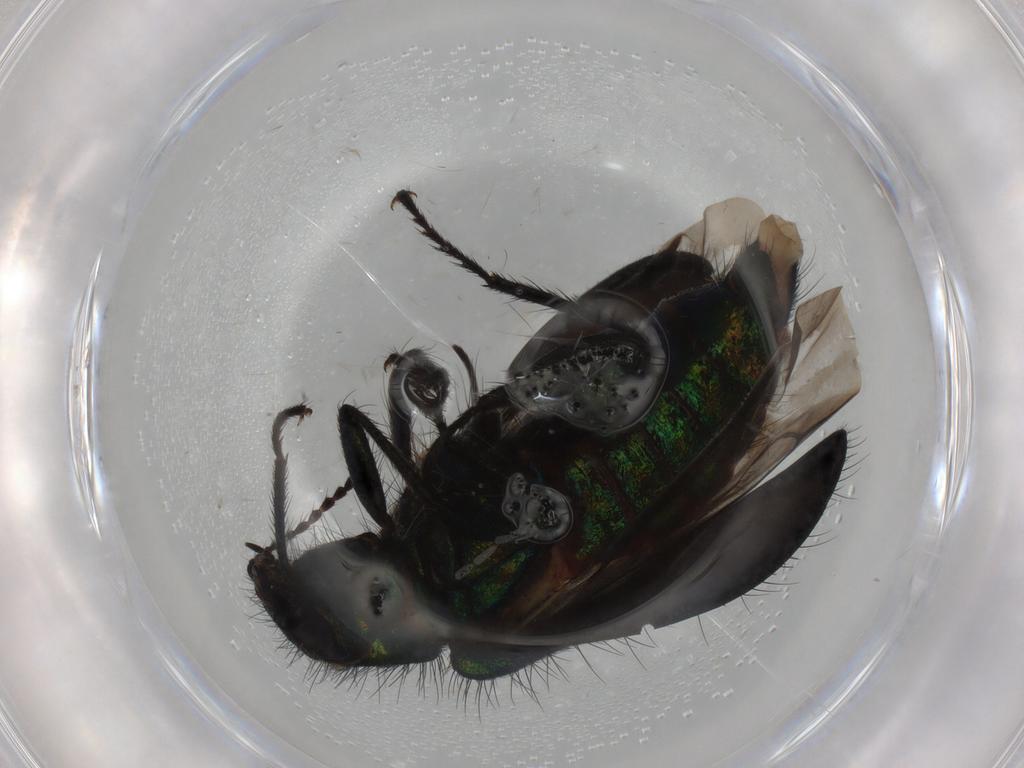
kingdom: Animalia
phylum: Arthropoda
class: Insecta
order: Coleoptera
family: Melyridae
